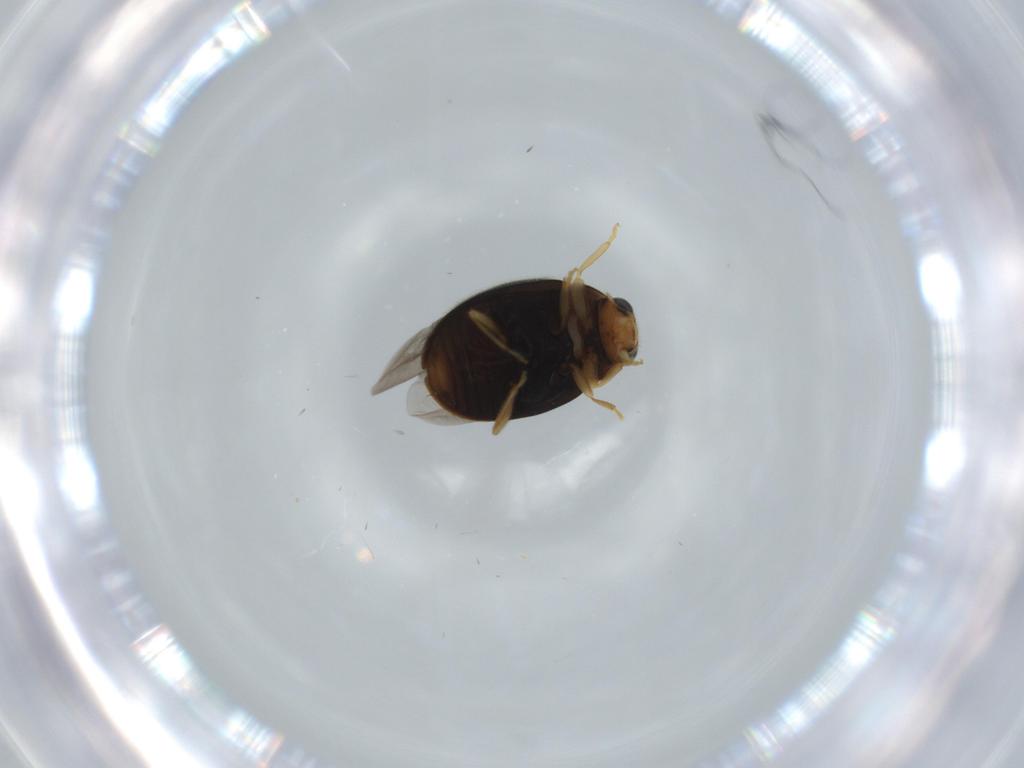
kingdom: Animalia
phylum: Arthropoda
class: Insecta
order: Coleoptera
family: Coccinellidae
